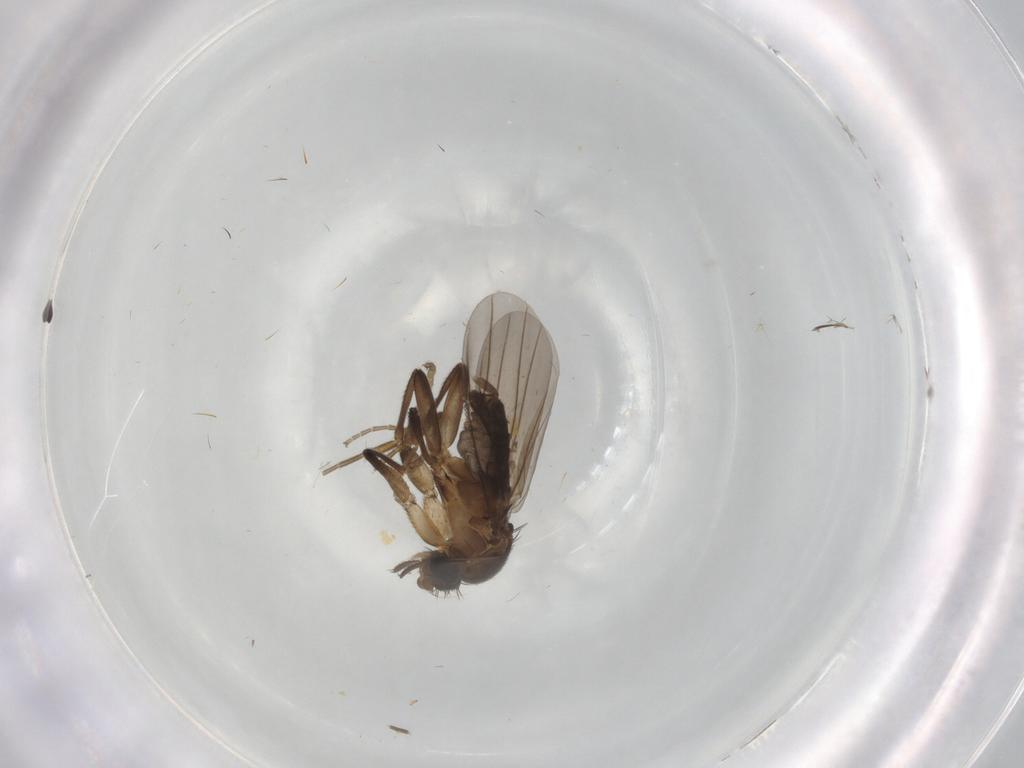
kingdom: Animalia
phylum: Arthropoda
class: Insecta
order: Diptera
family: Phoridae
